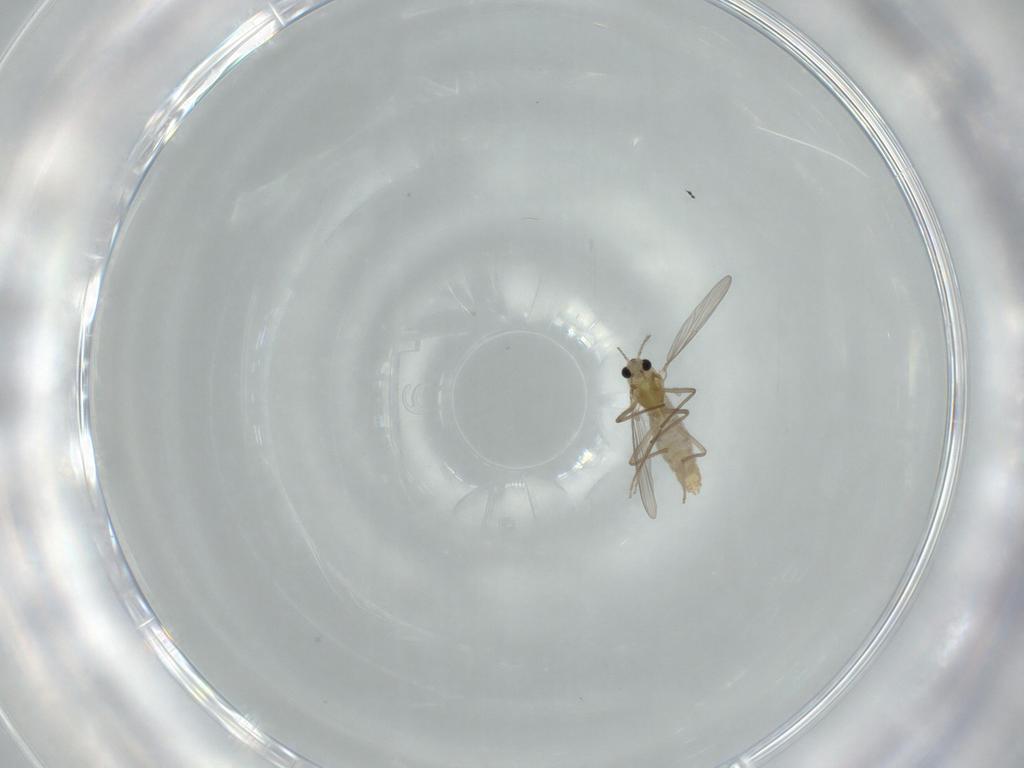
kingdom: Animalia
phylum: Arthropoda
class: Insecta
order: Diptera
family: Chironomidae
